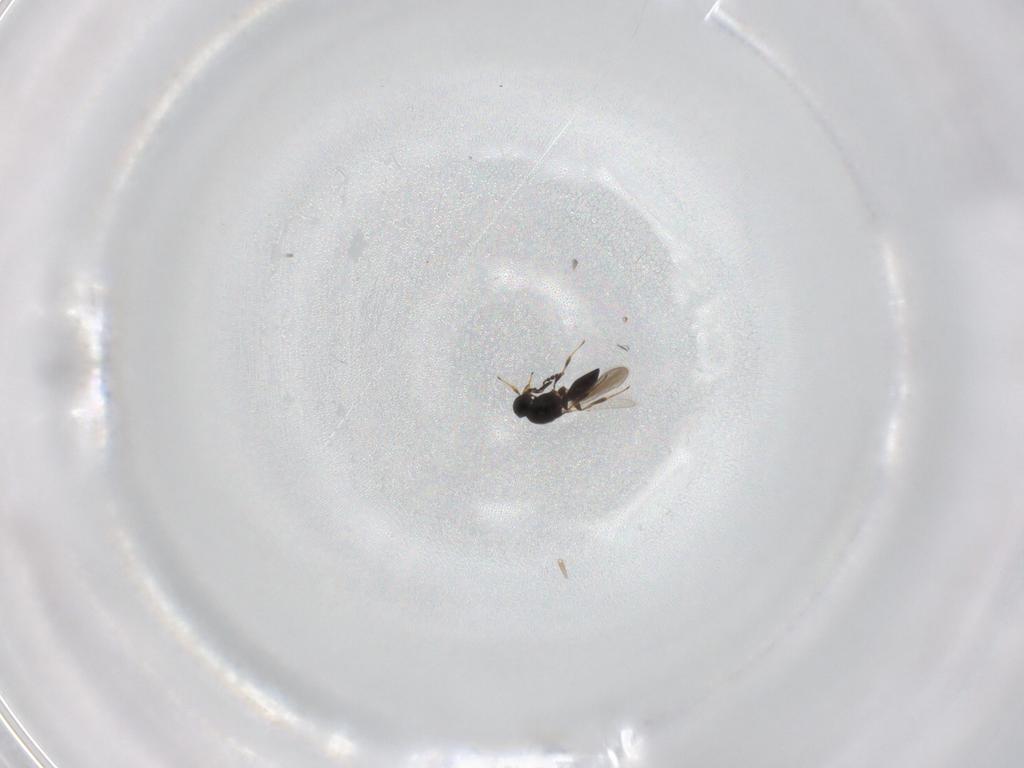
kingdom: Animalia
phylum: Arthropoda
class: Insecta
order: Hymenoptera
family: Platygastridae
